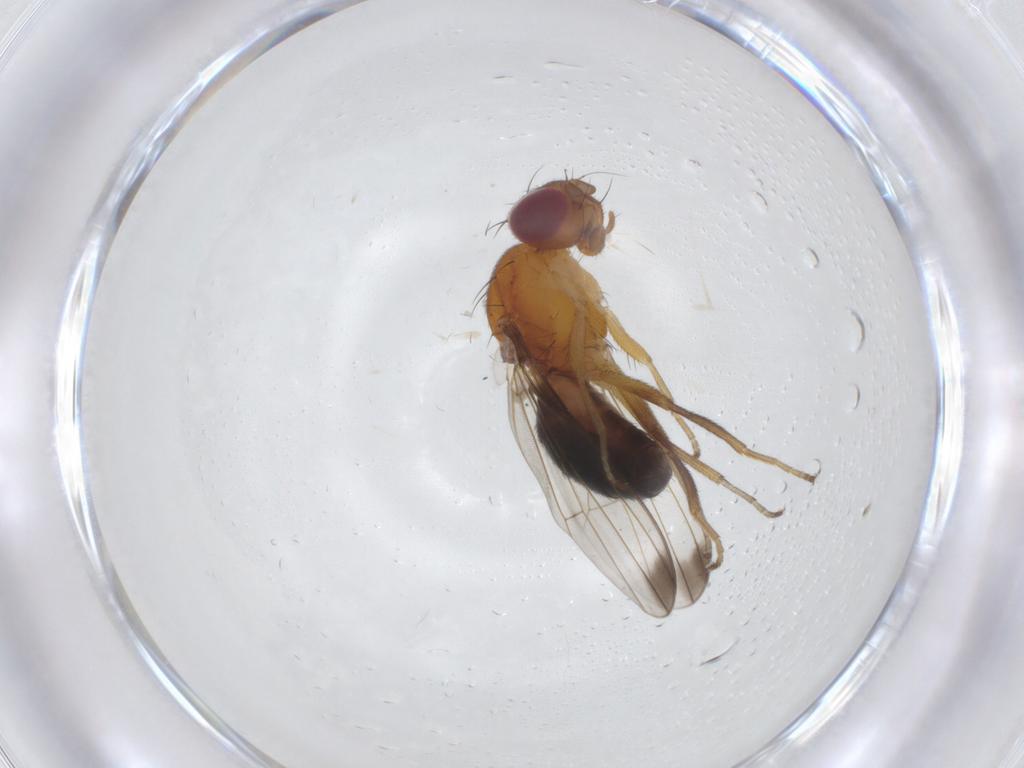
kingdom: Animalia
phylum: Arthropoda
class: Insecta
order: Diptera
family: Piophilidae
